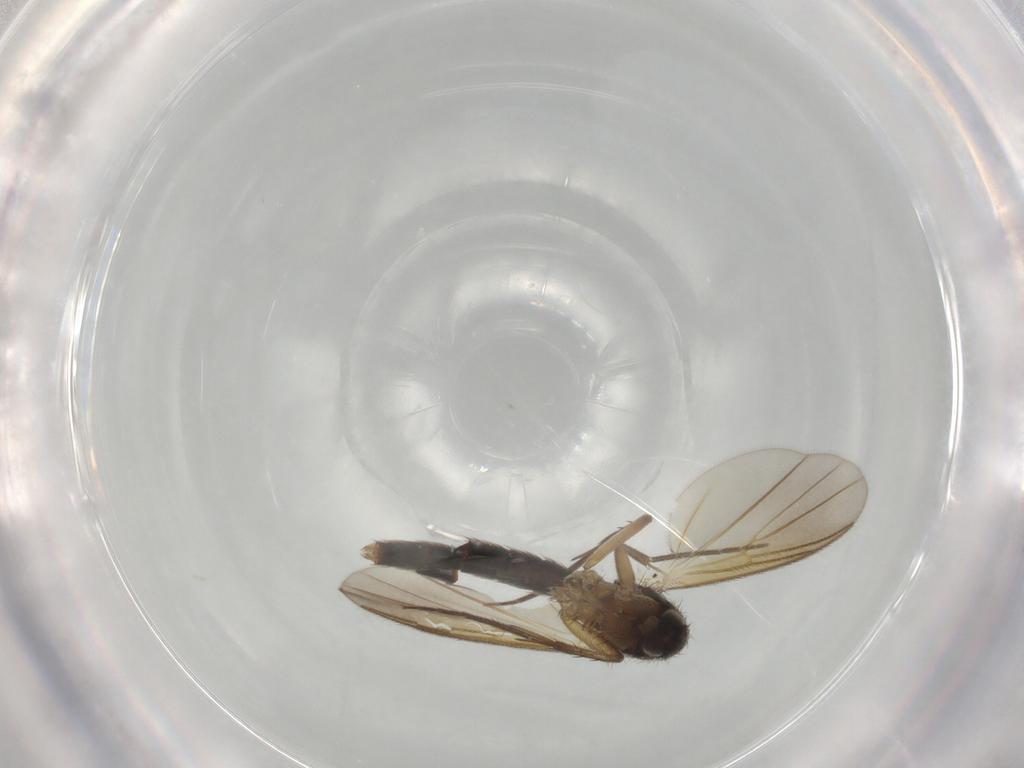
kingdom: Animalia
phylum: Arthropoda
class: Insecta
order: Diptera
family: Mycetophilidae
